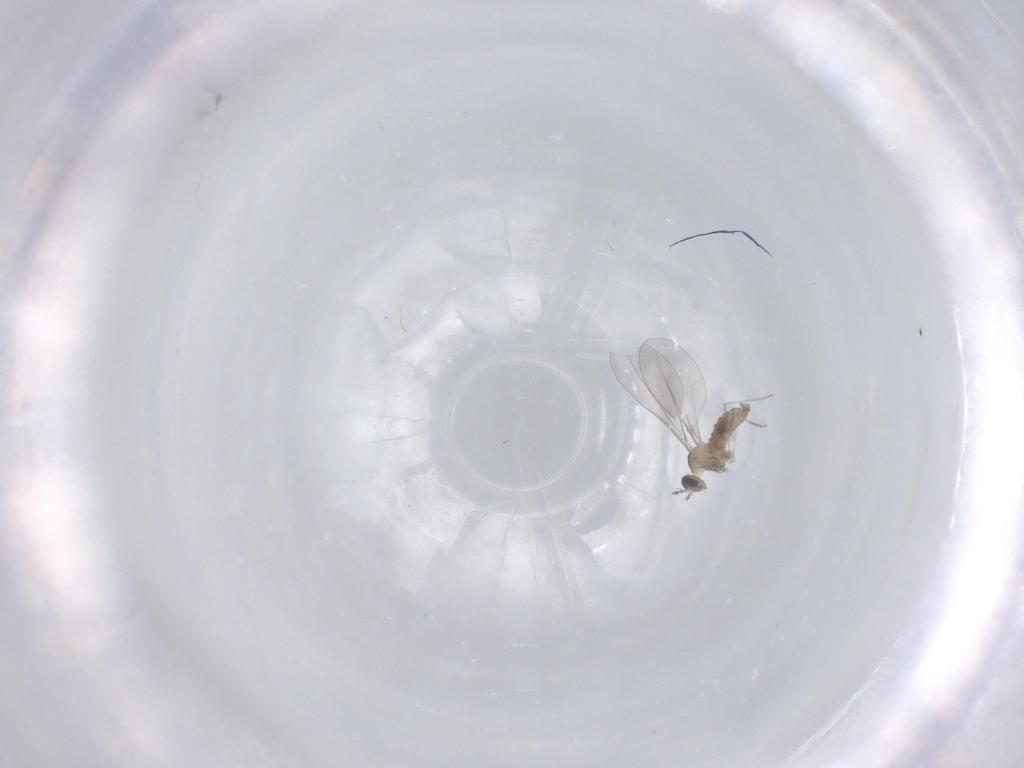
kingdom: Animalia
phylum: Arthropoda
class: Insecta
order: Diptera
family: Cecidomyiidae
